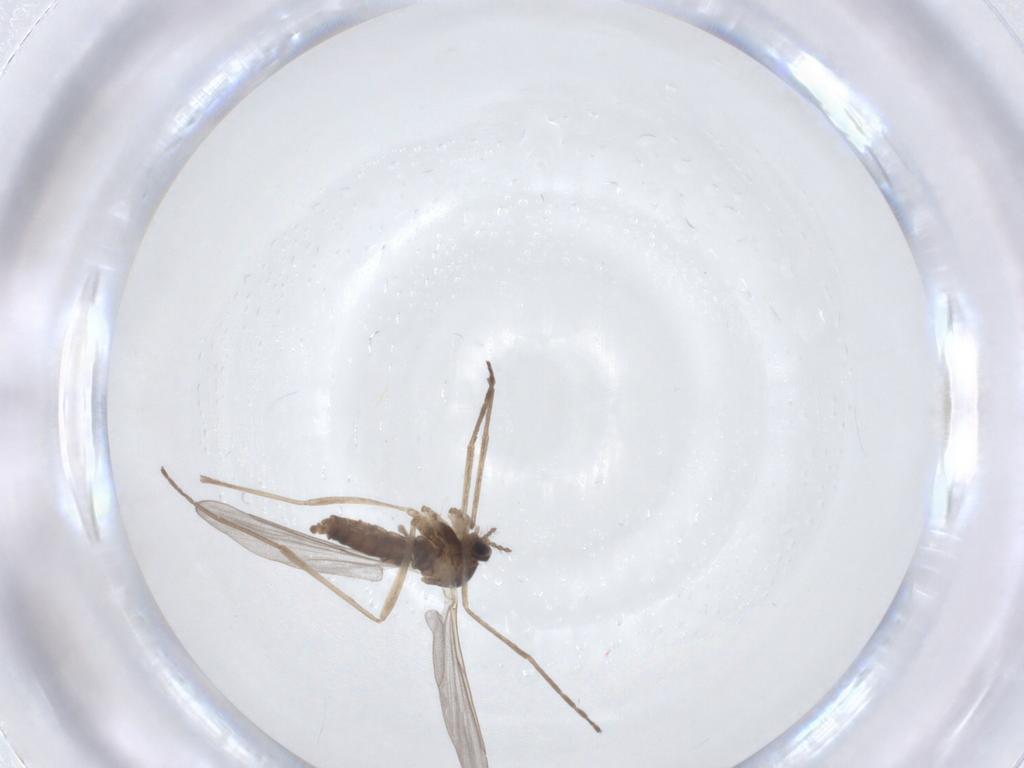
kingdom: Animalia
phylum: Arthropoda
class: Insecta
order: Diptera
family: Cecidomyiidae
